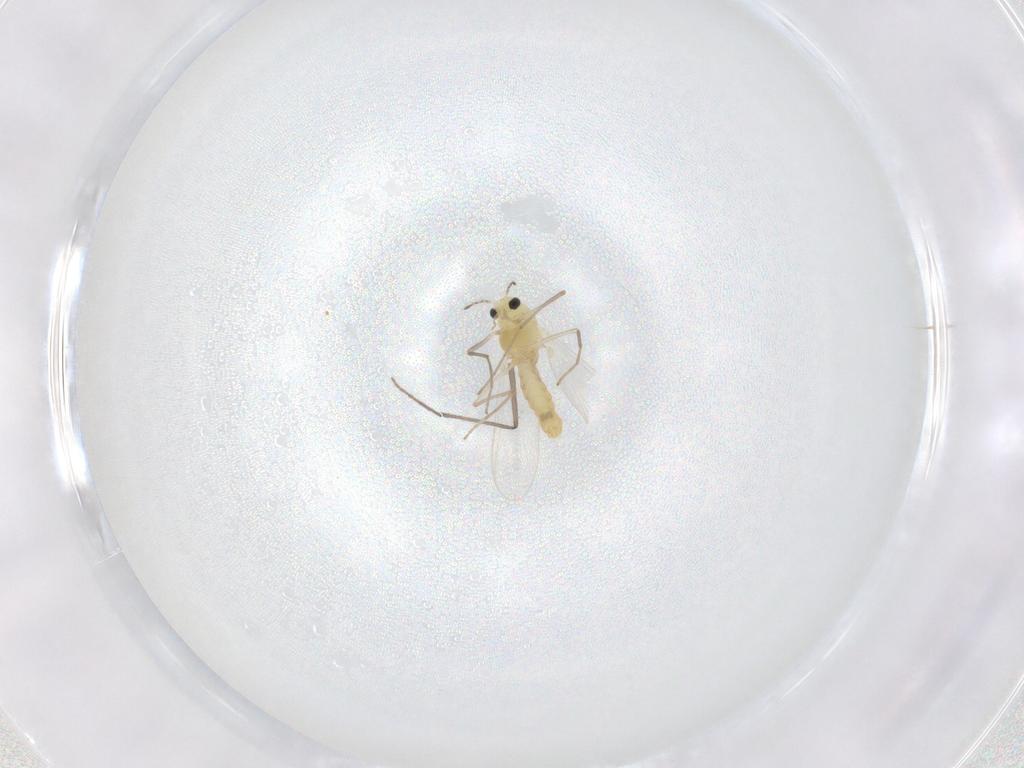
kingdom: Animalia
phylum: Arthropoda
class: Insecta
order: Diptera
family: Chironomidae
